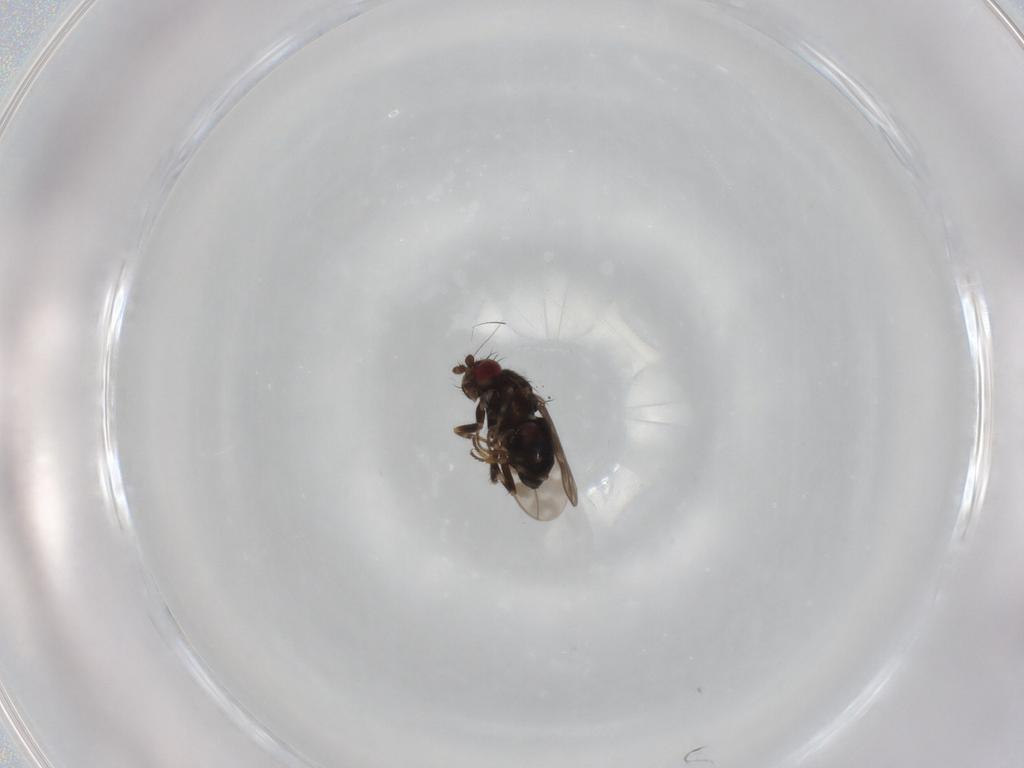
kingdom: Animalia
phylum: Arthropoda
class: Insecta
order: Diptera
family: Sphaeroceridae
